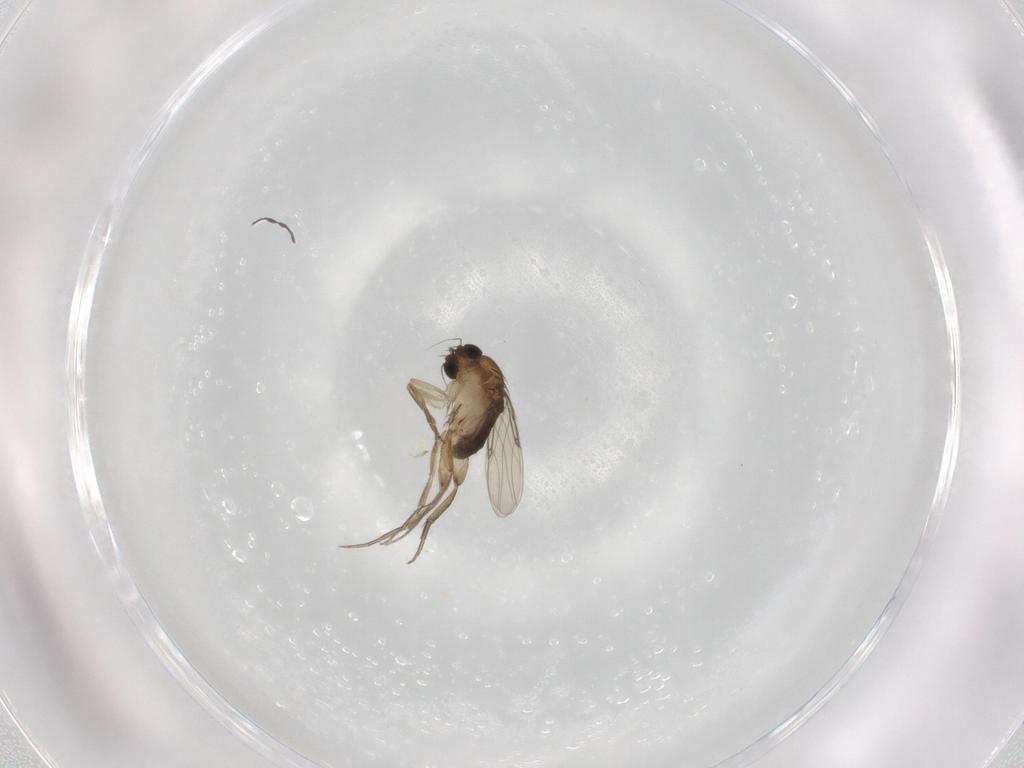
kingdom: Animalia
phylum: Arthropoda
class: Insecta
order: Diptera
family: Phoridae
